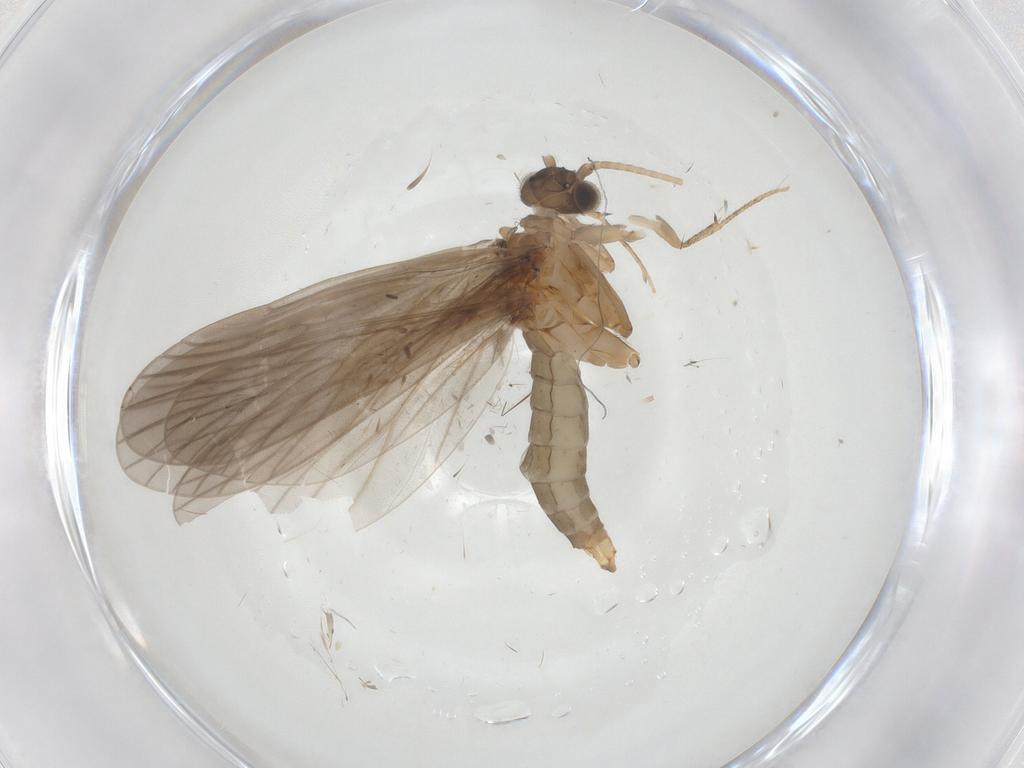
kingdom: Animalia
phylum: Arthropoda
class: Insecta
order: Trichoptera
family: Philopotamidae
